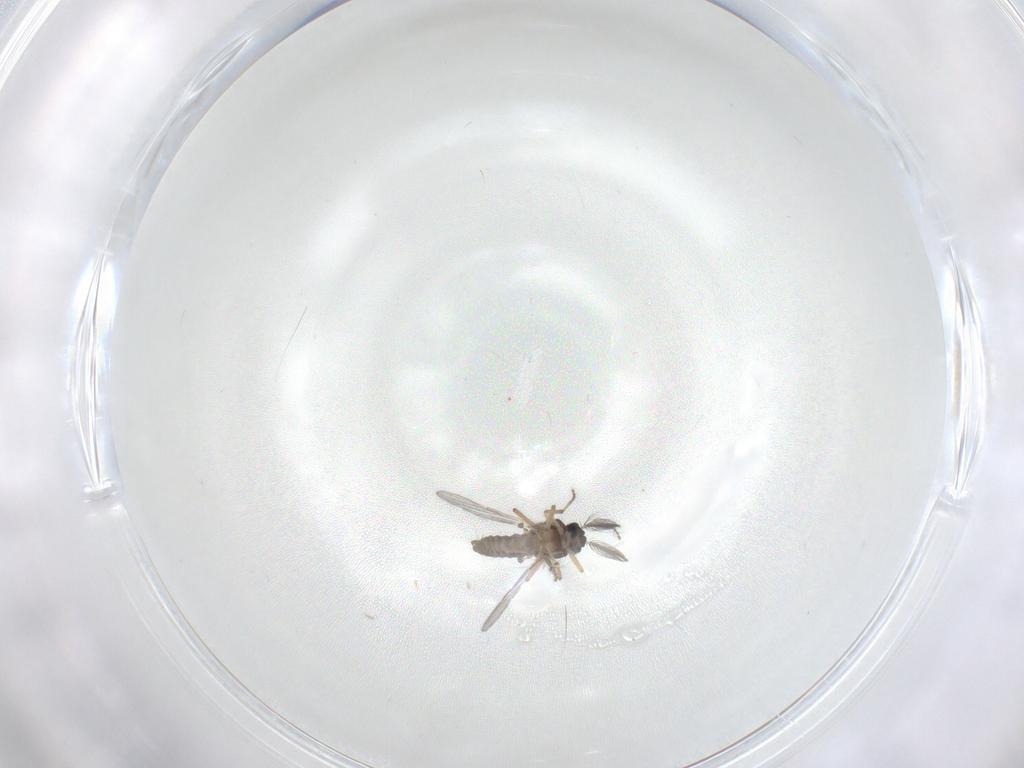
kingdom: Animalia
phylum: Arthropoda
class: Insecta
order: Diptera
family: Ceratopogonidae
